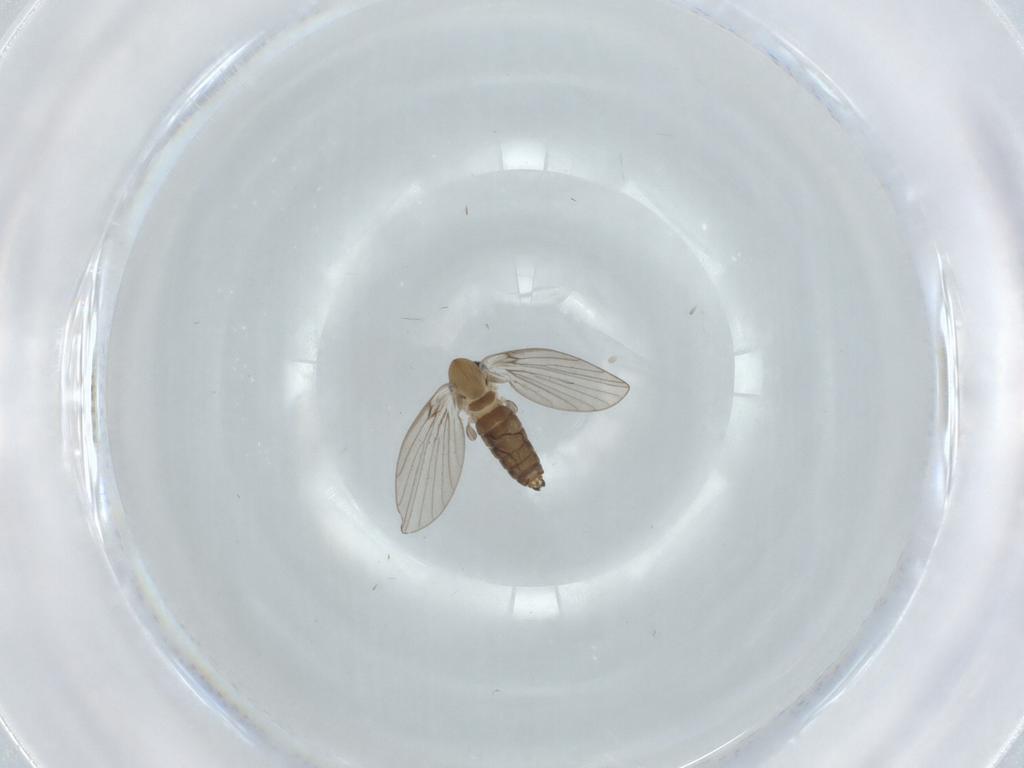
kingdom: Animalia
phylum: Arthropoda
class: Insecta
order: Diptera
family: Psychodidae
